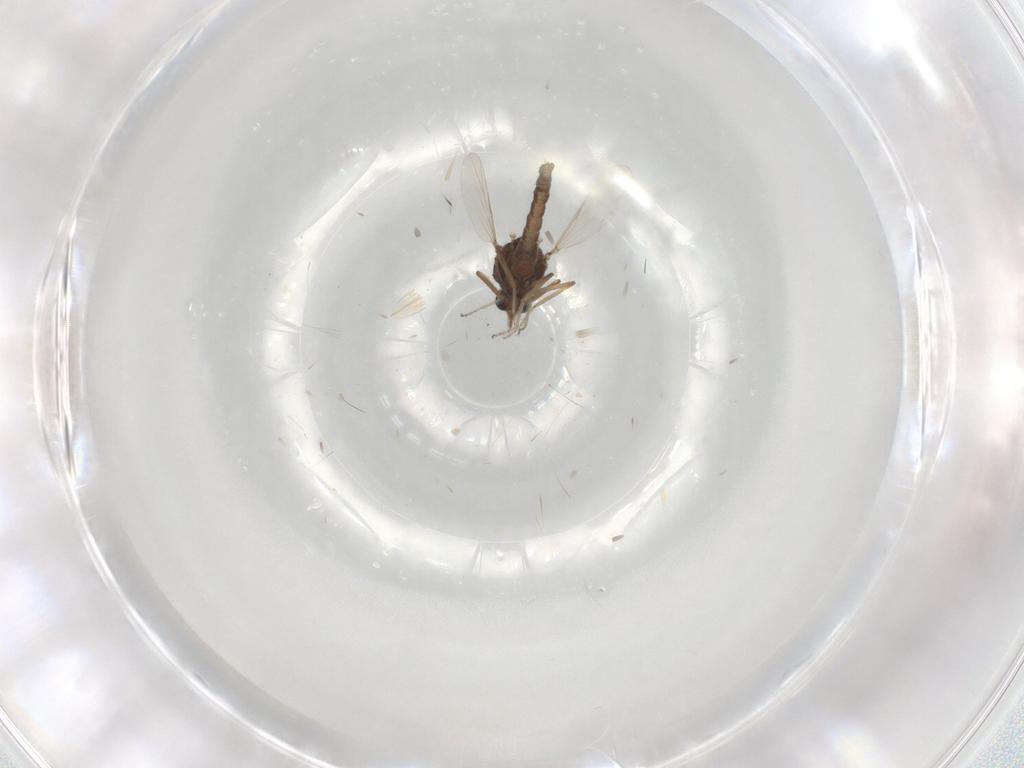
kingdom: Animalia
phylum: Arthropoda
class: Insecta
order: Diptera
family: Ceratopogonidae
